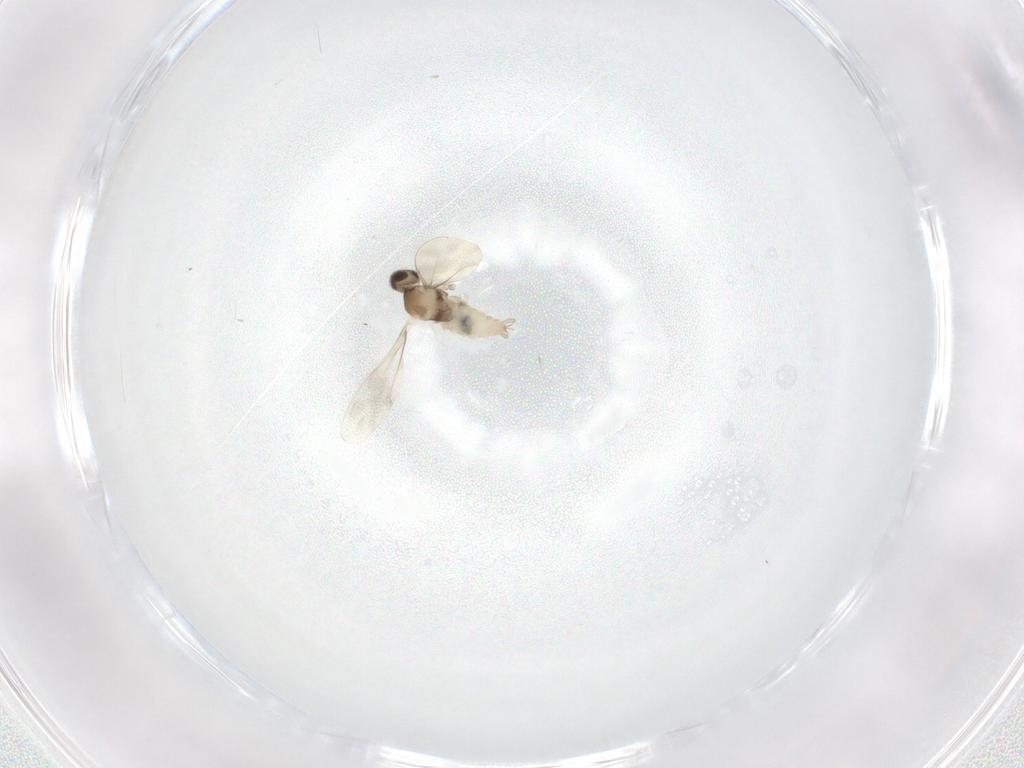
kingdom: Animalia
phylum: Arthropoda
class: Insecta
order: Diptera
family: Cecidomyiidae
